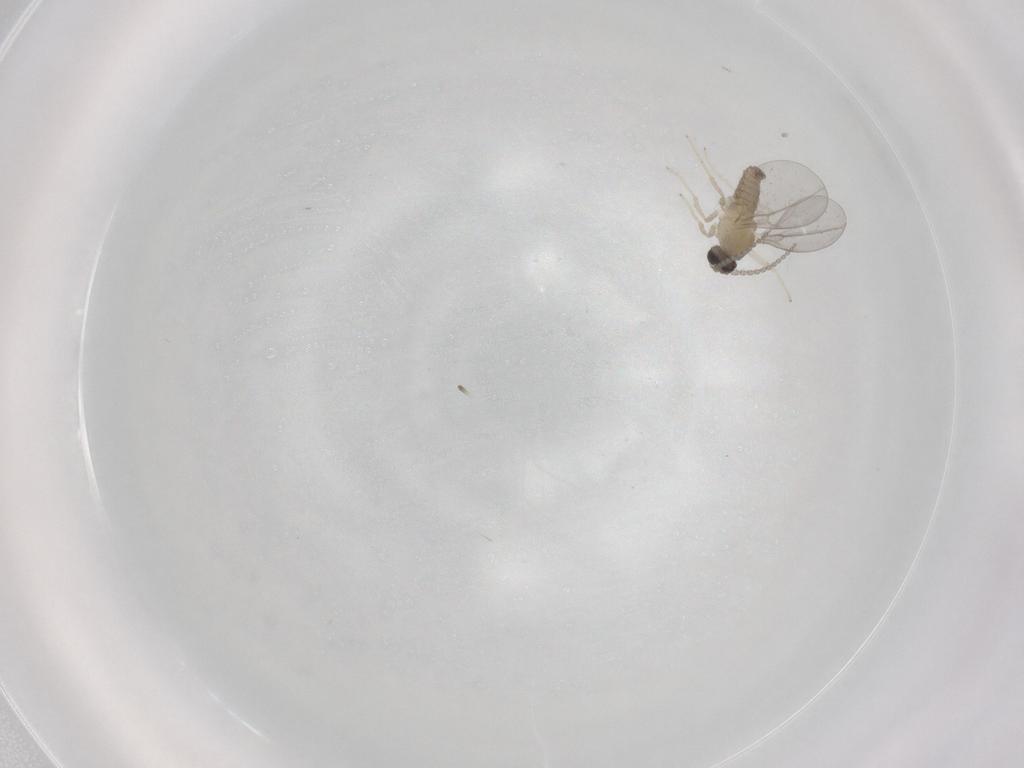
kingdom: Animalia
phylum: Arthropoda
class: Insecta
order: Diptera
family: Cecidomyiidae
